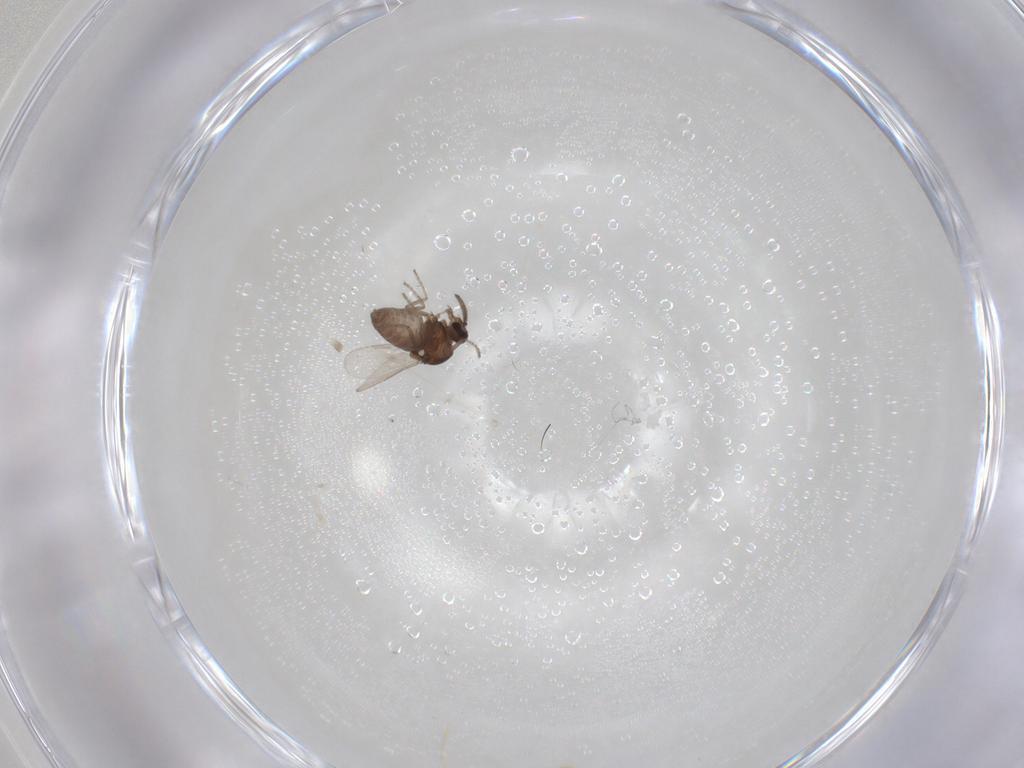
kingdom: Animalia
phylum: Arthropoda
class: Insecta
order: Diptera
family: Ceratopogonidae
